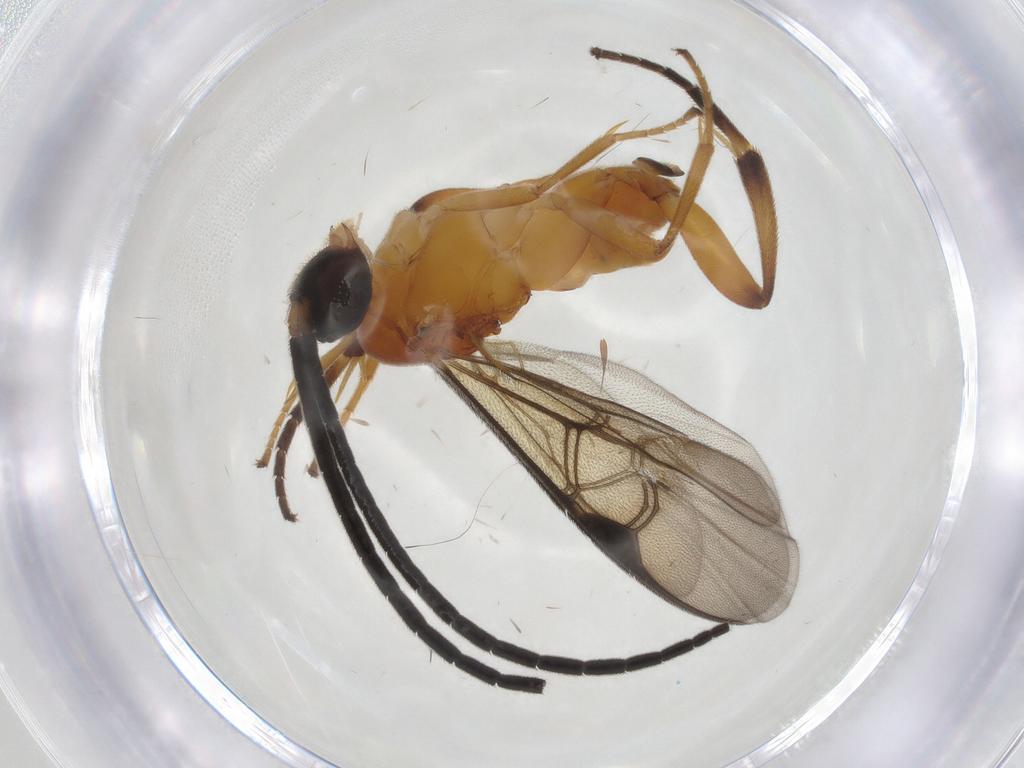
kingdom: Animalia
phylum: Arthropoda
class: Insecta
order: Hymenoptera
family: Braconidae
